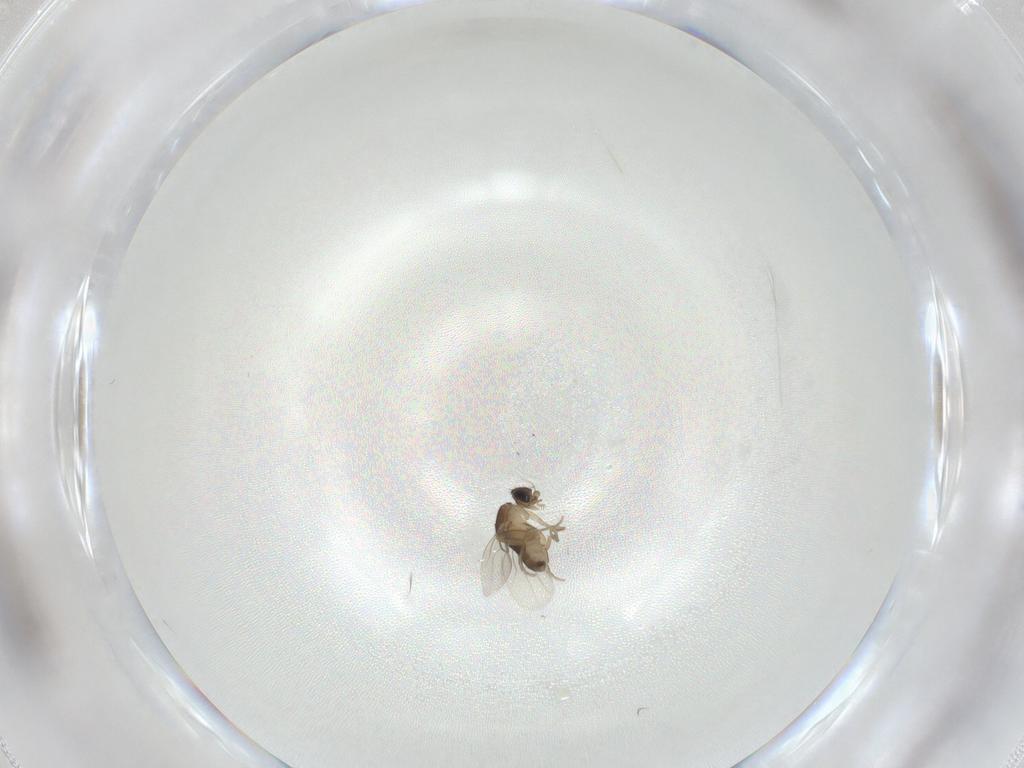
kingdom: Animalia
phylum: Arthropoda
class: Insecta
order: Diptera
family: Phoridae
